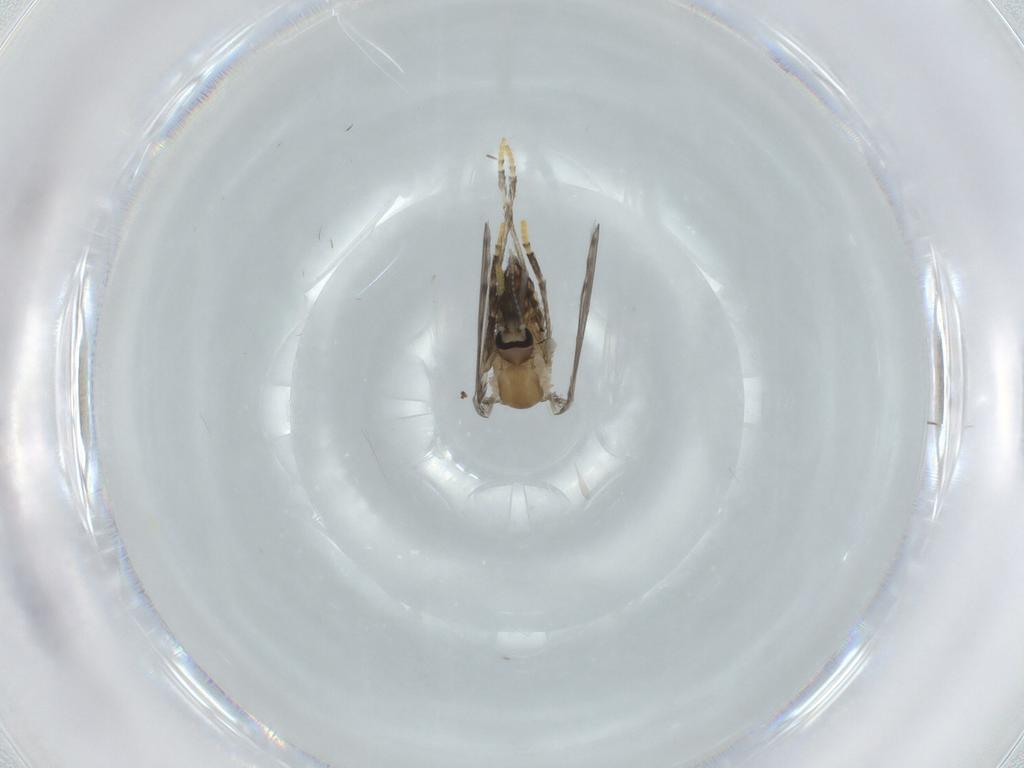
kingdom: Animalia
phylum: Arthropoda
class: Insecta
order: Diptera
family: Psychodidae
